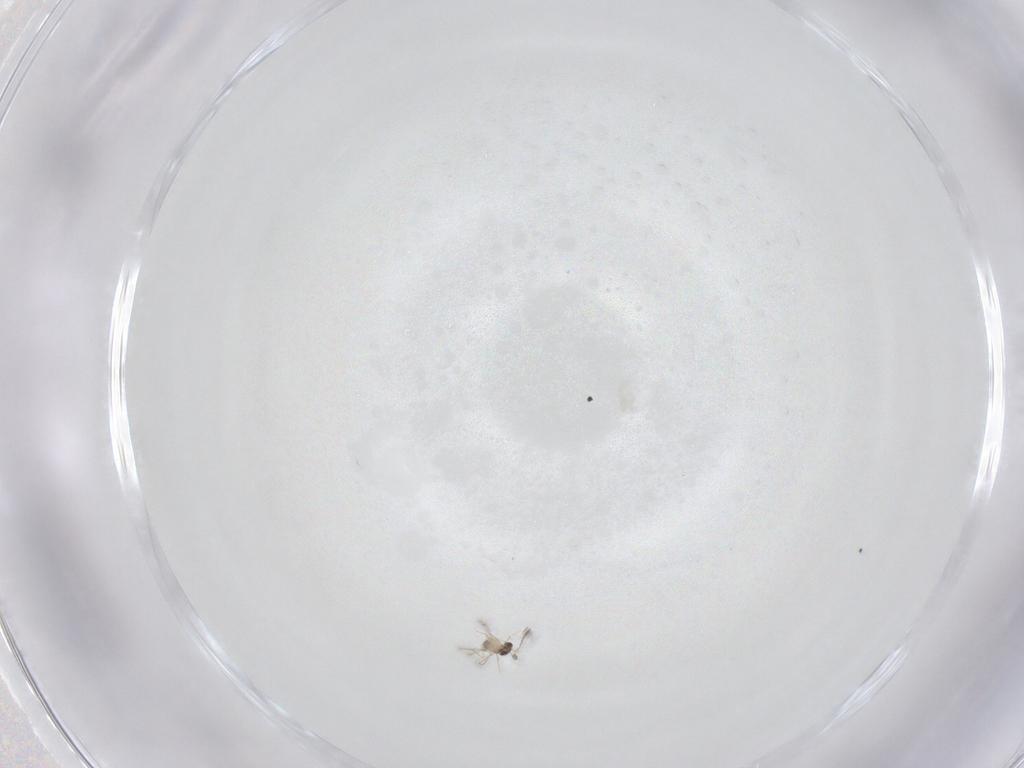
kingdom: Animalia
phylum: Arthropoda
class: Insecta
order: Hymenoptera
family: Mymaridae
